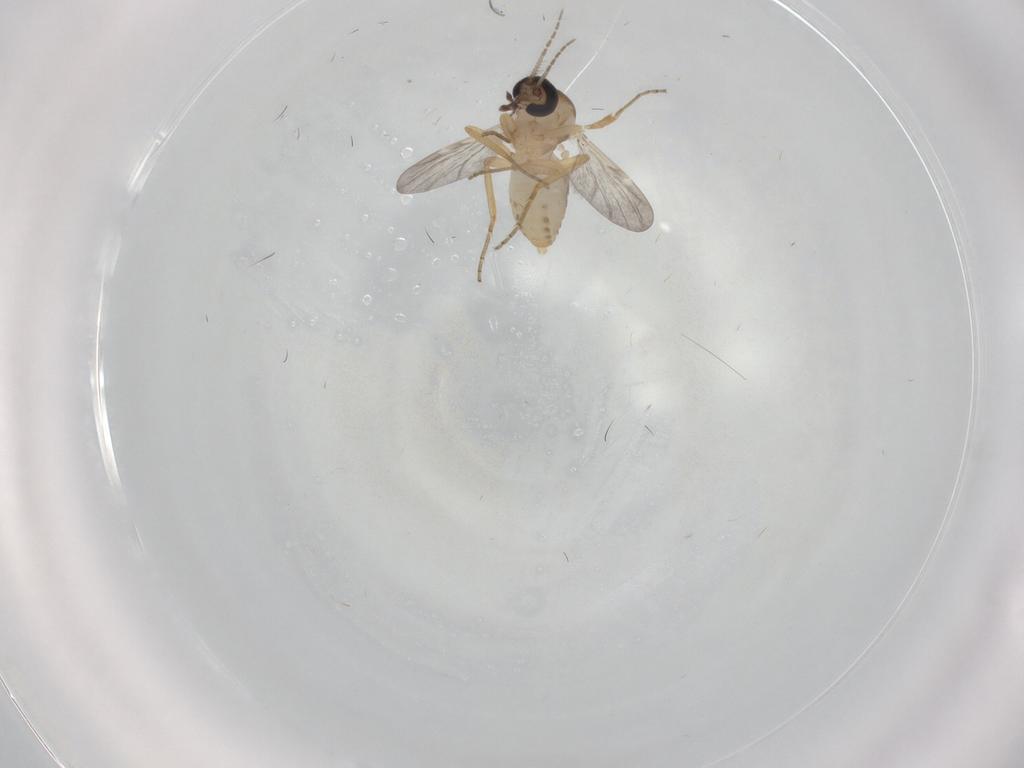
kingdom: Animalia
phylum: Arthropoda
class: Insecta
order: Diptera
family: Ceratopogonidae
